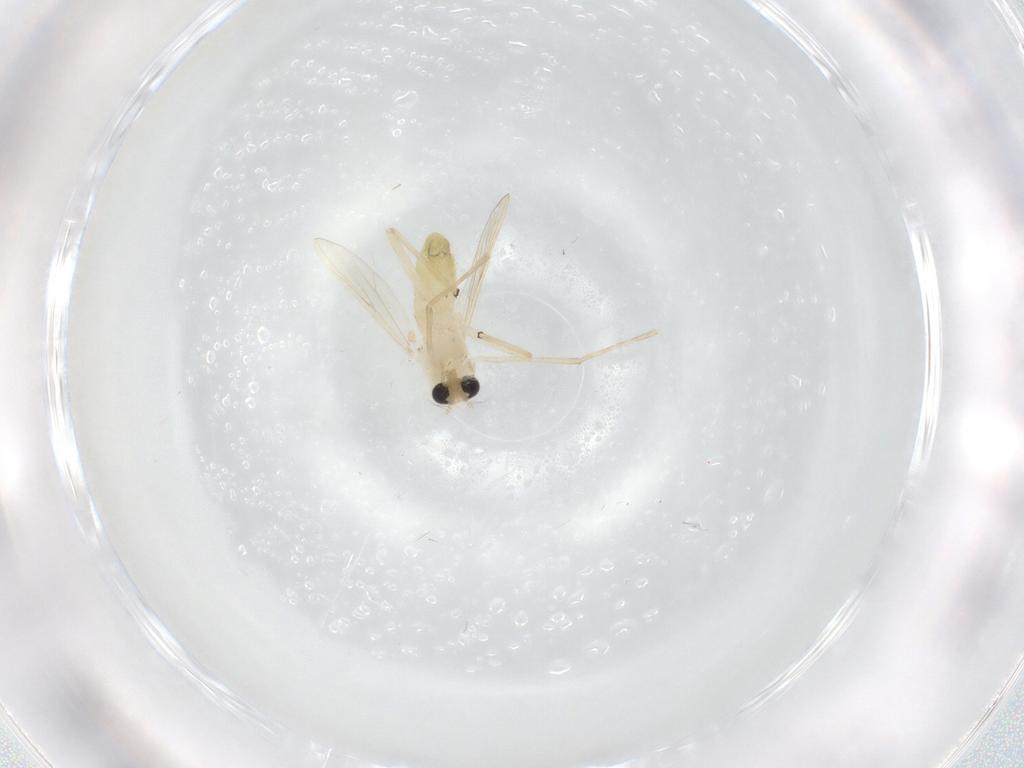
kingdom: Animalia
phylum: Arthropoda
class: Insecta
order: Diptera
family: Chironomidae
